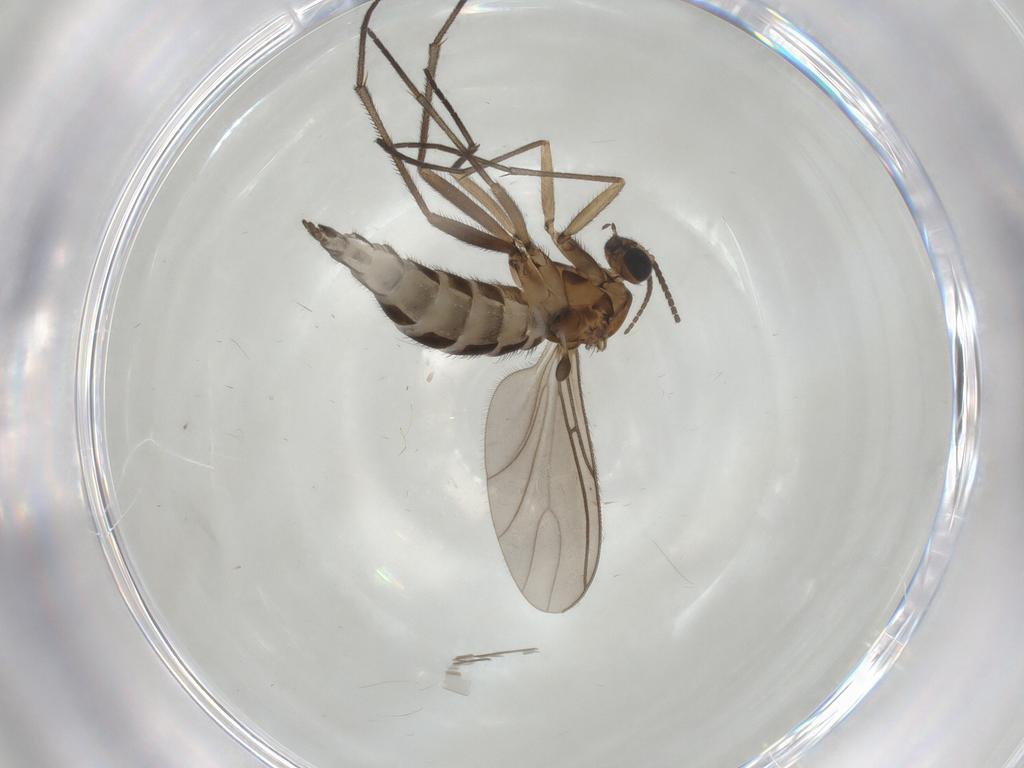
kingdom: Animalia
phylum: Arthropoda
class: Insecta
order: Diptera
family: Sciaridae
